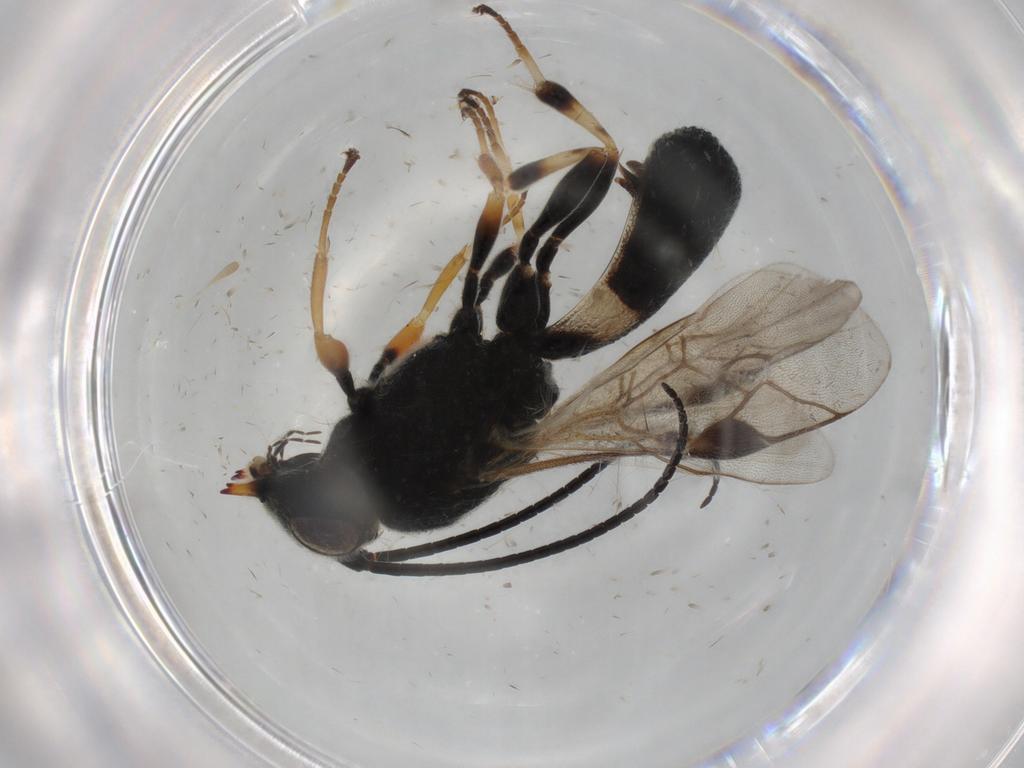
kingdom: Animalia
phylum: Arthropoda
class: Insecta
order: Hymenoptera
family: Braconidae
